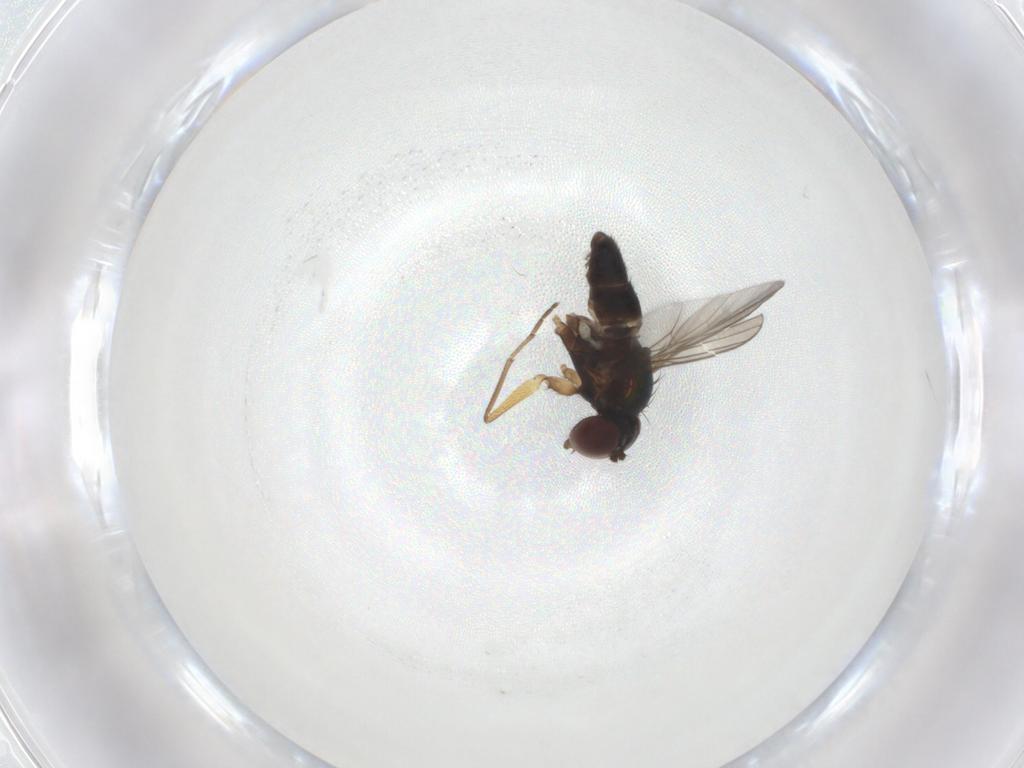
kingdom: Animalia
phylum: Arthropoda
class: Insecta
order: Diptera
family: Dolichopodidae
